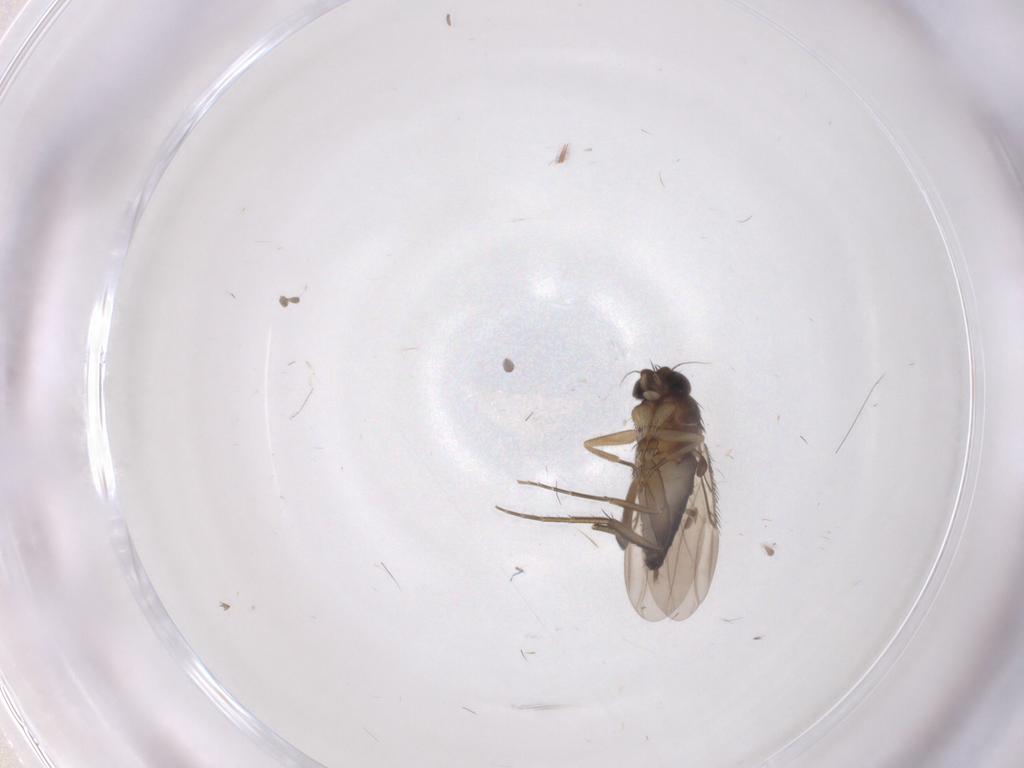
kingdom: Animalia
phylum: Arthropoda
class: Insecta
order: Diptera
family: Phoridae
